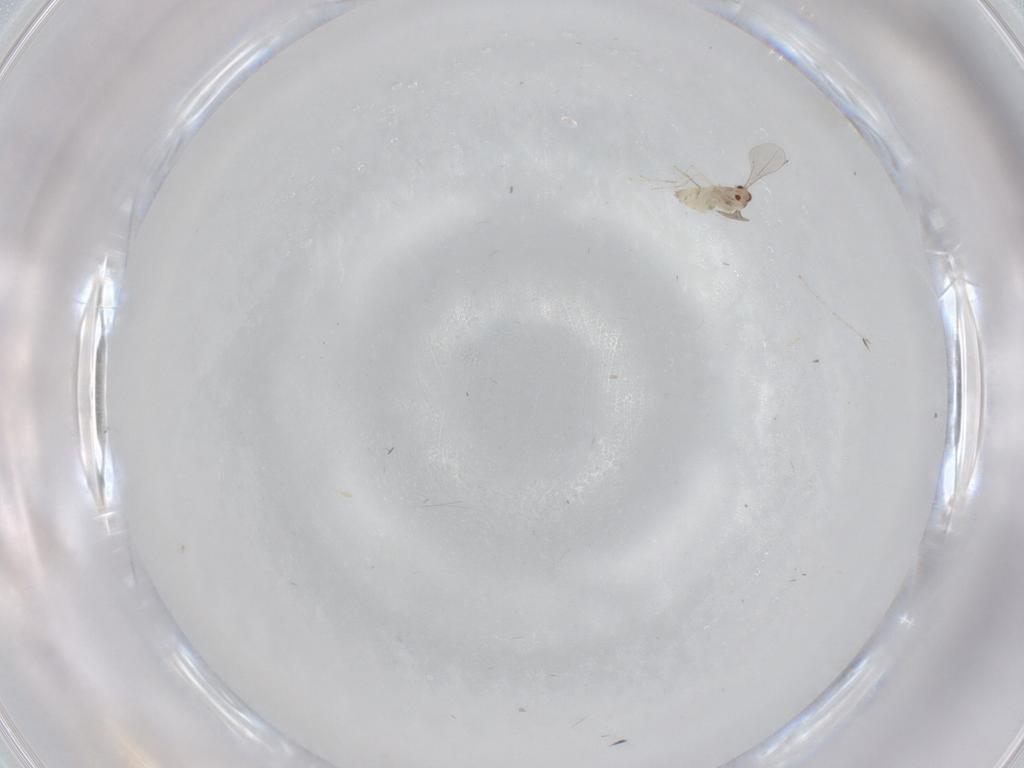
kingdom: Animalia
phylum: Arthropoda
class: Insecta
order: Diptera
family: Cecidomyiidae
